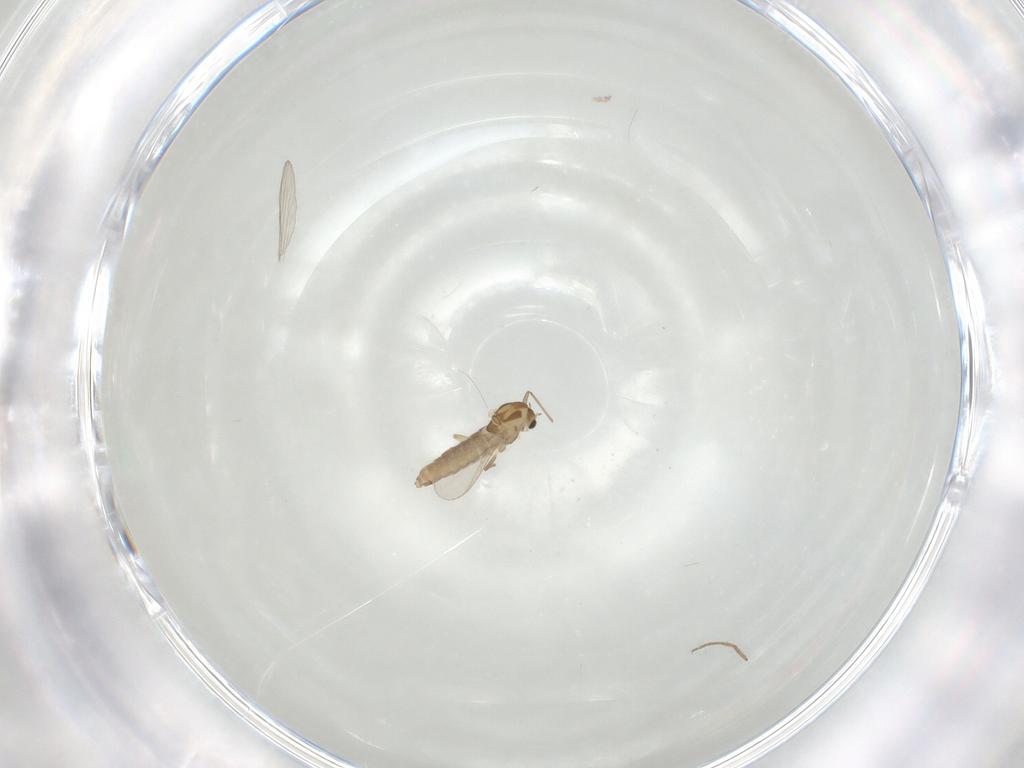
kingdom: Animalia
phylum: Arthropoda
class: Insecta
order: Diptera
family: Chironomidae
